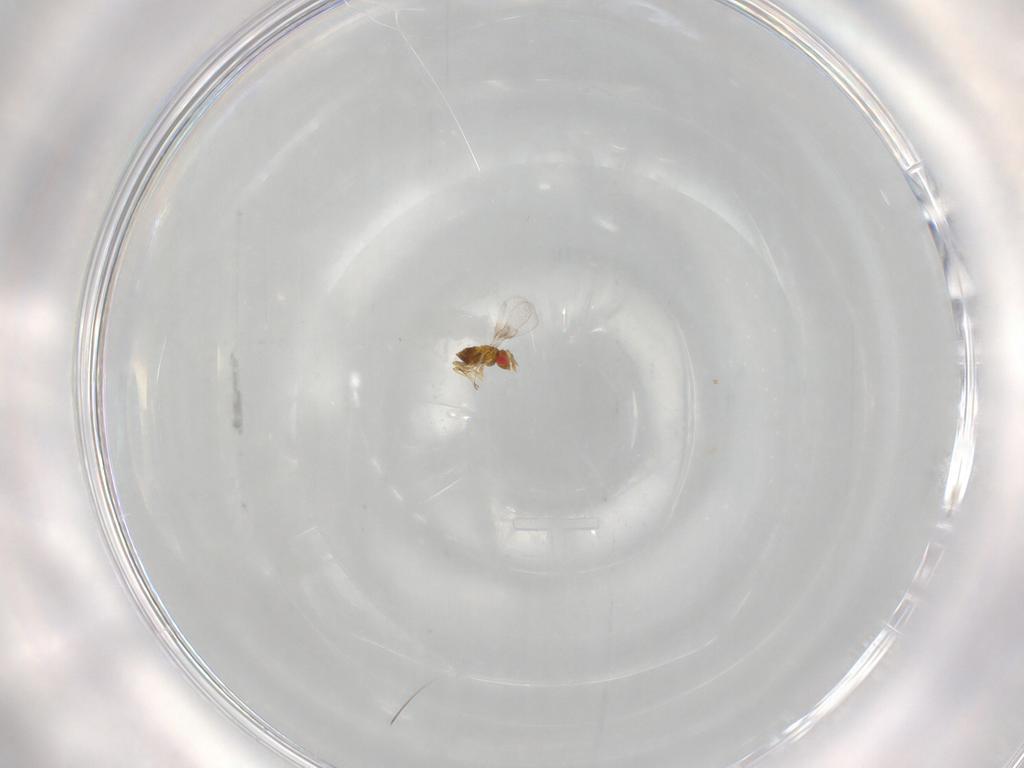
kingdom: Animalia
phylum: Arthropoda
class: Insecta
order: Hymenoptera
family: Trichogrammatidae
